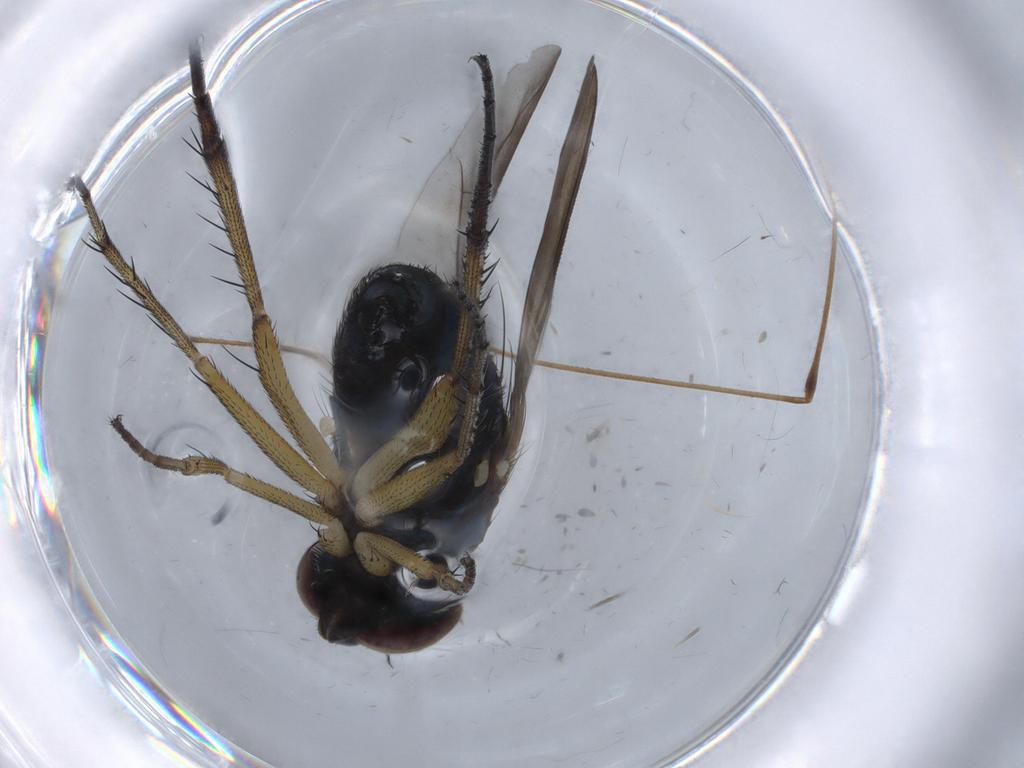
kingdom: Animalia
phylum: Arthropoda
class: Insecta
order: Diptera
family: Dolichopodidae
